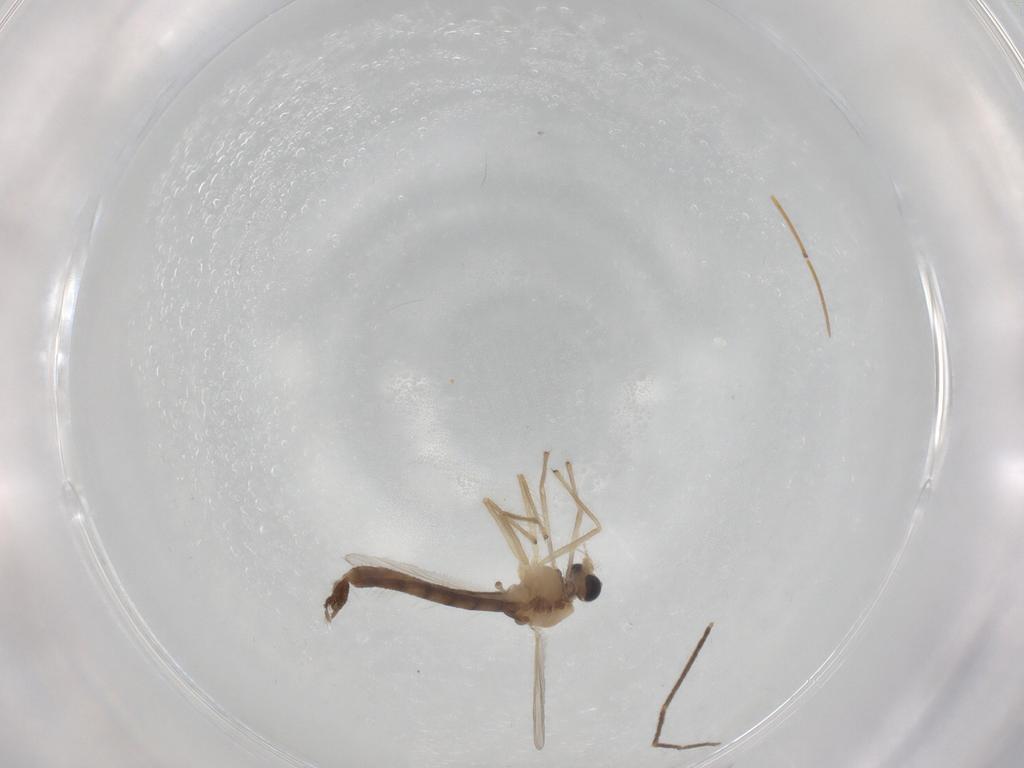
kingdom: Animalia
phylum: Arthropoda
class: Insecta
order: Diptera
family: Chironomidae
